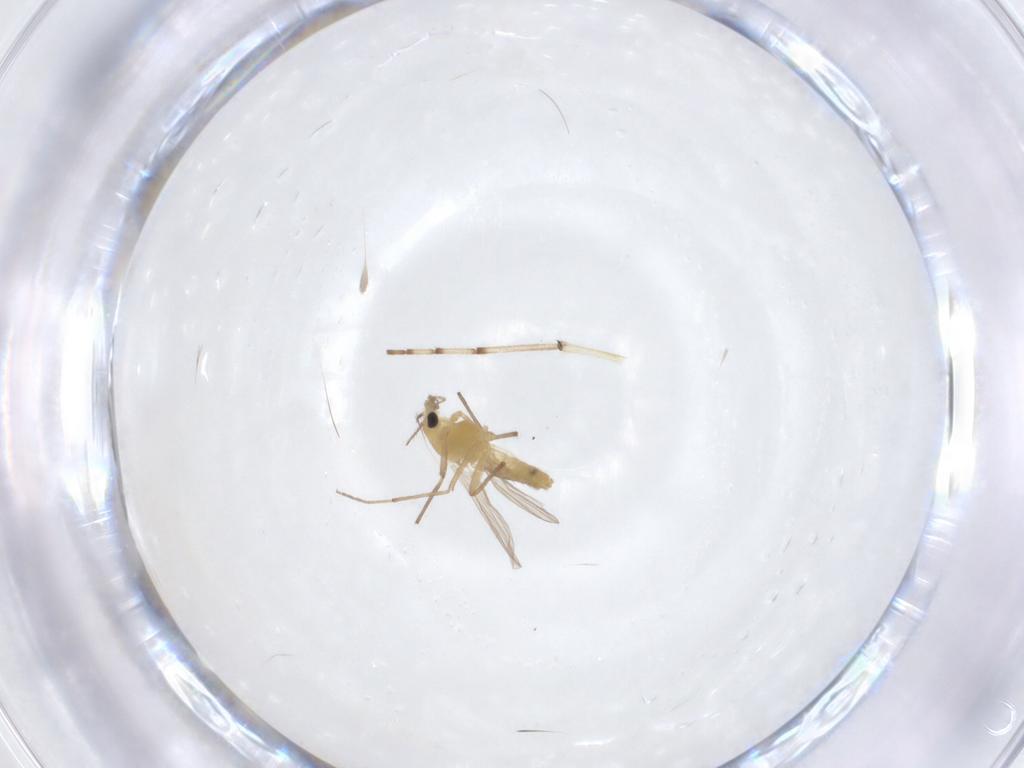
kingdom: Animalia
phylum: Arthropoda
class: Insecta
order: Diptera
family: Chironomidae
